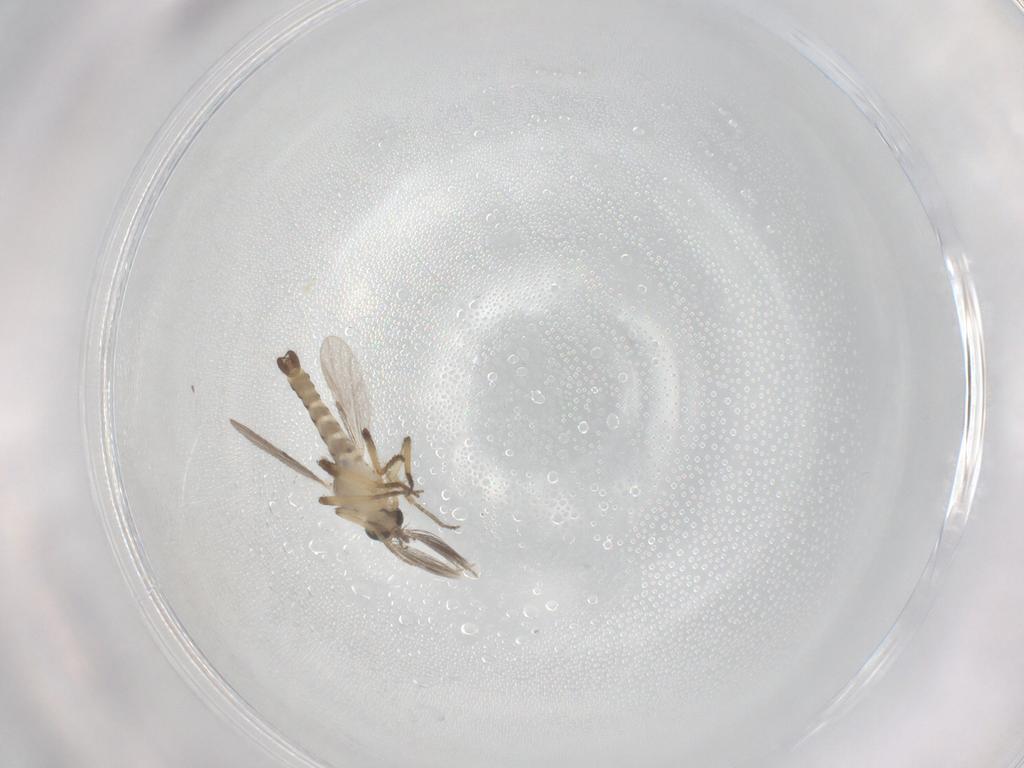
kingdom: Animalia
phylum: Arthropoda
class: Insecta
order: Diptera
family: Ceratopogonidae
